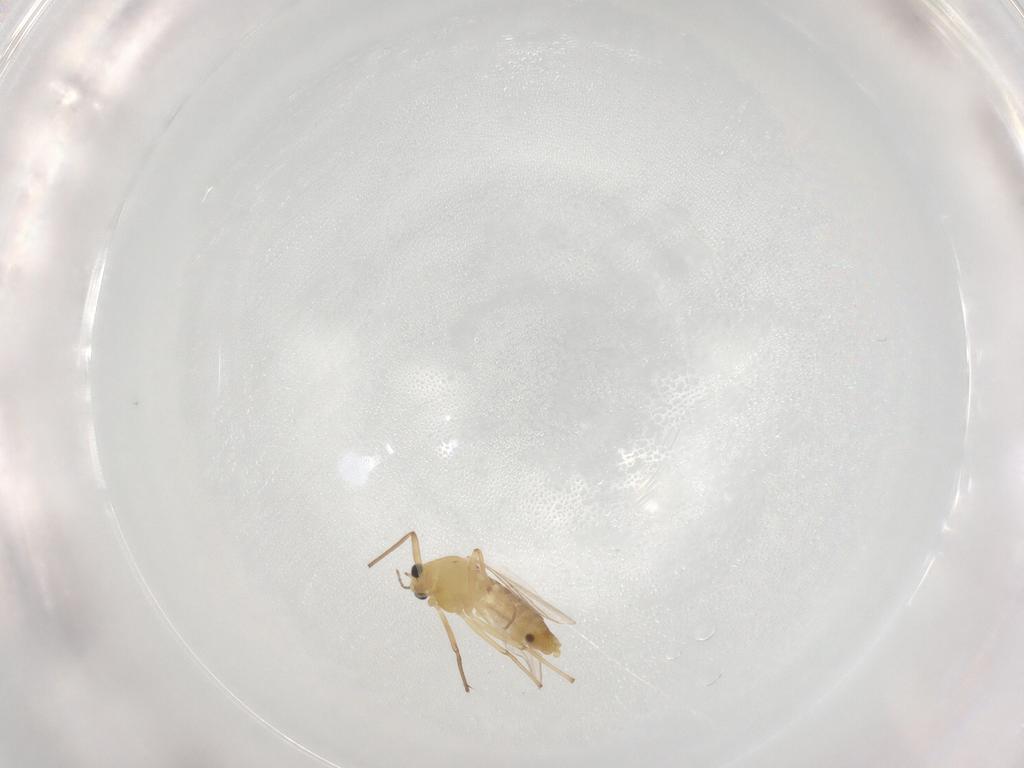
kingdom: Animalia
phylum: Arthropoda
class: Insecta
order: Diptera
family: Chironomidae
